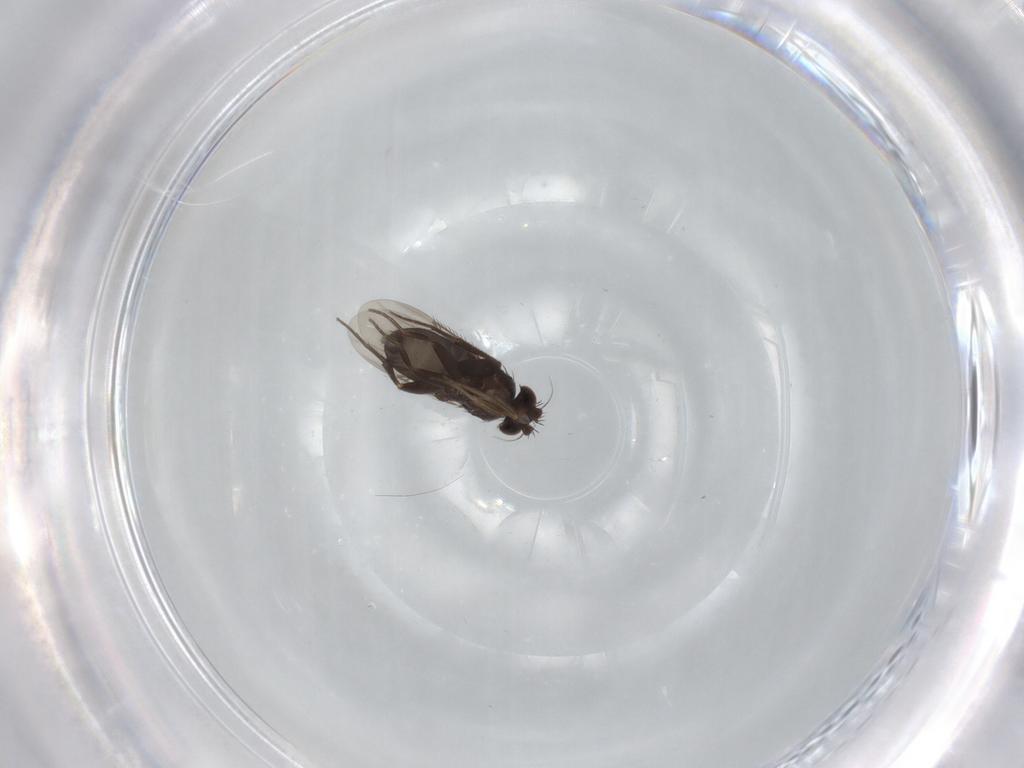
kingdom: Animalia
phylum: Arthropoda
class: Insecta
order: Diptera
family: Phoridae
